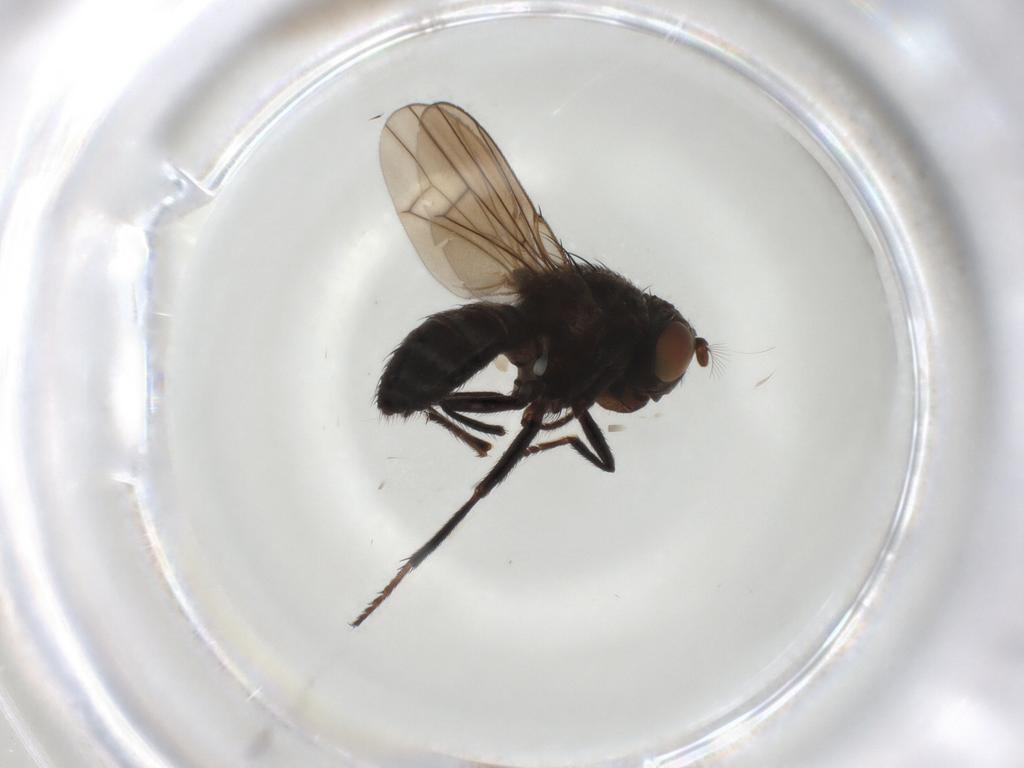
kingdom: Animalia
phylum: Arthropoda
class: Insecta
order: Diptera
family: Ephydridae
